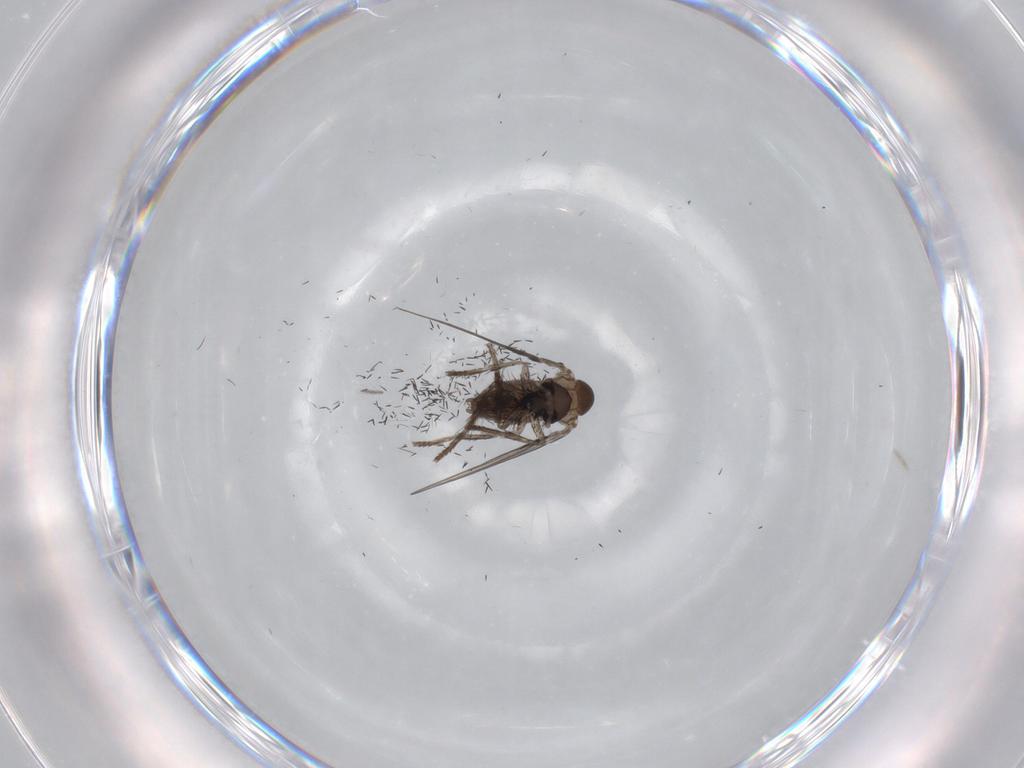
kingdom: Animalia
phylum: Arthropoda
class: Insecta
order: Diptera
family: Psychodidae
